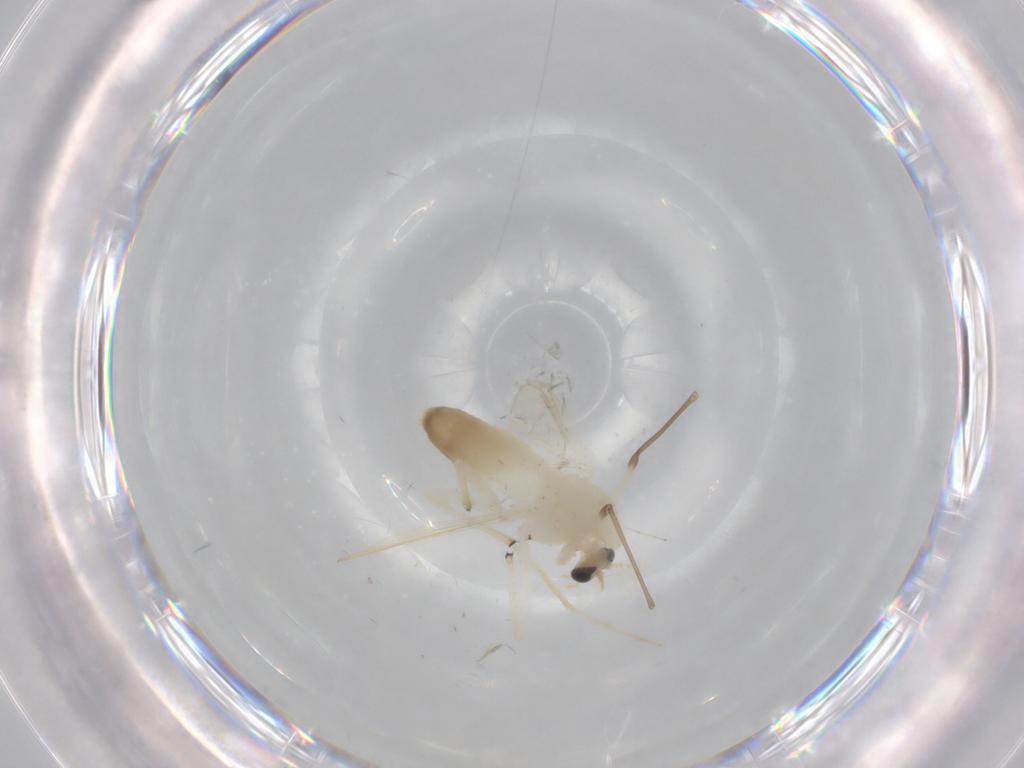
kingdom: Animalia
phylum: Arthropoda
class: Insecta
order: Diptera
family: Chironomidae
